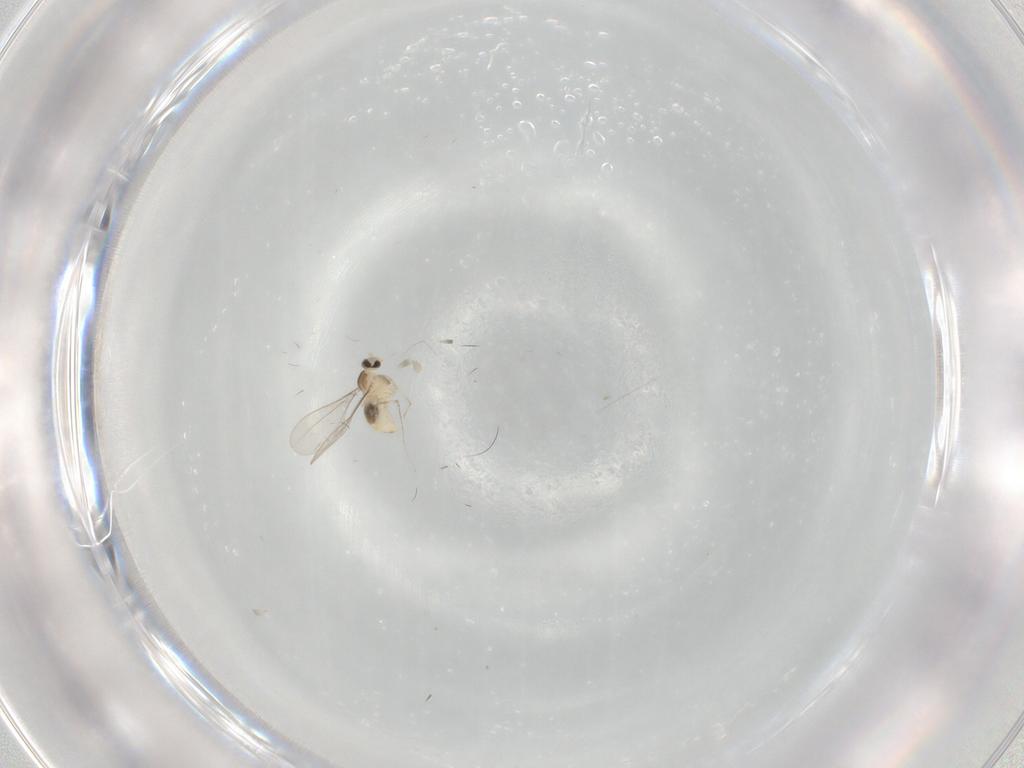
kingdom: Animalia
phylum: Arthropoda
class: Insecta
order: Diptera
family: Cecidomyiidae
